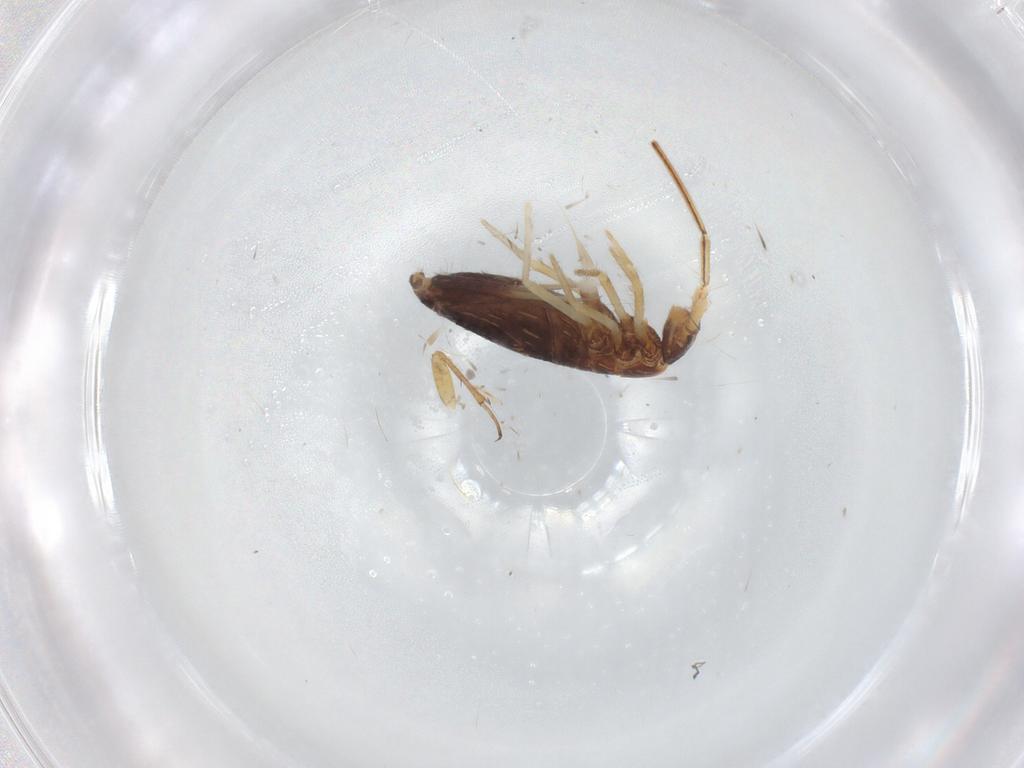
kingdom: Animalia
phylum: Arthropoda
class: Collembola
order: Entomobryomorpha
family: Entomobryidae
